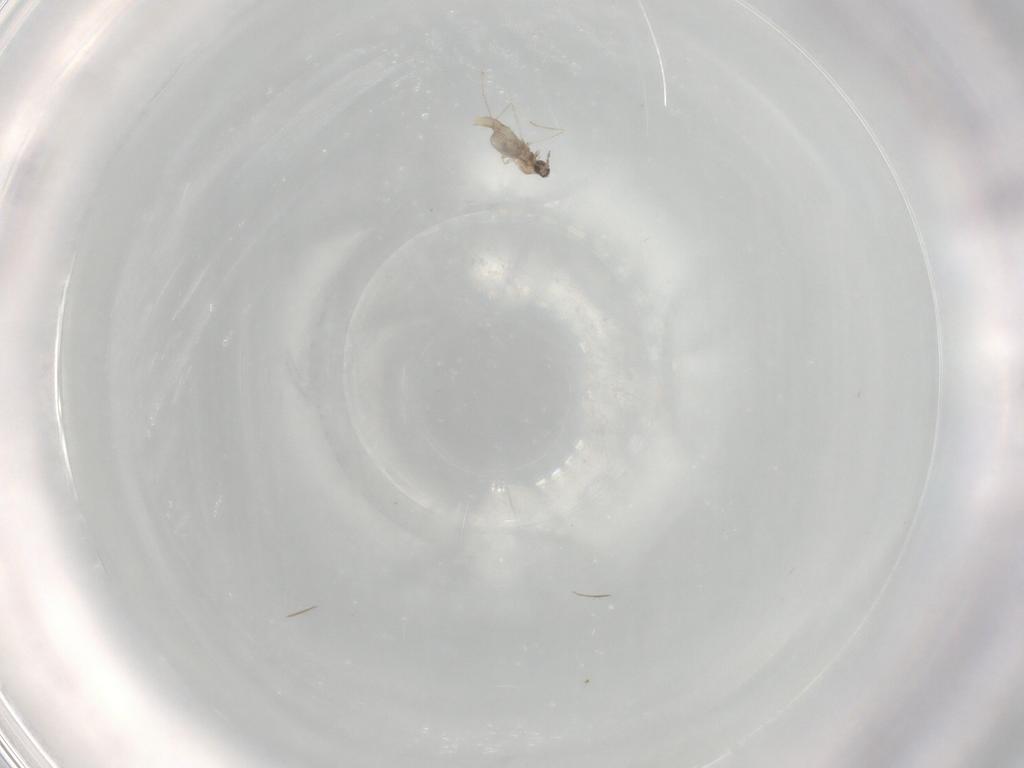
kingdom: Animalia
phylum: Arthropoda
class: Insecta
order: Diptera
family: Cecidomyiidae
